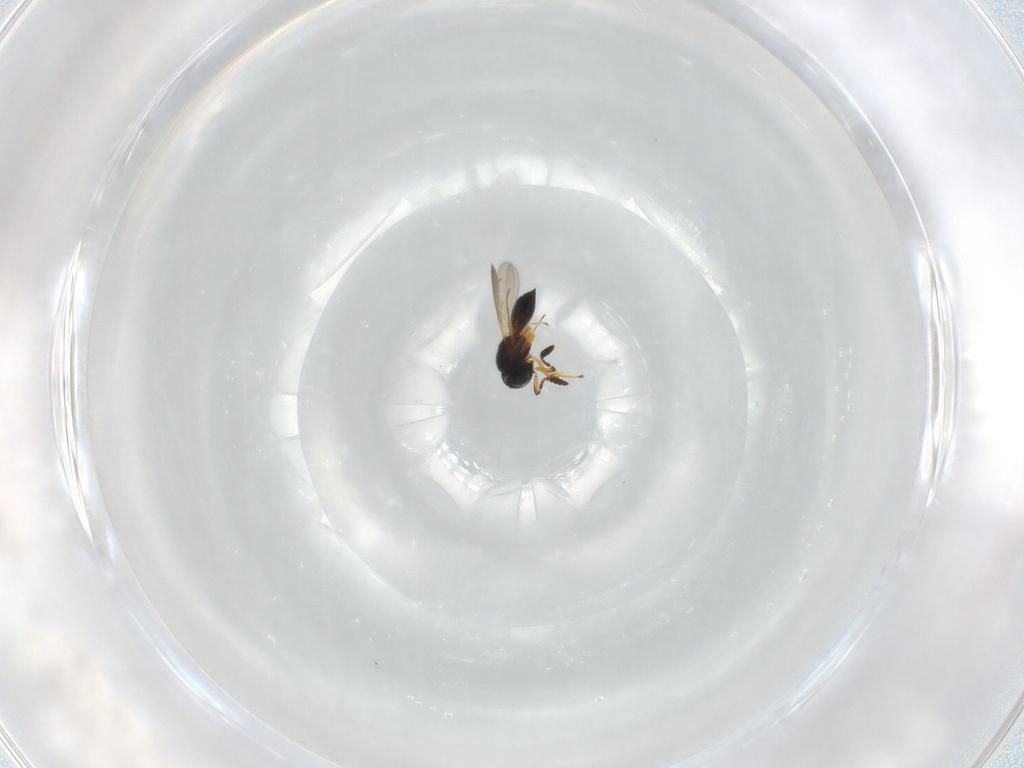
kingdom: Animalia
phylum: Arthropoda
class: Insecta
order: Hymenoptera
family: Scelionidae
